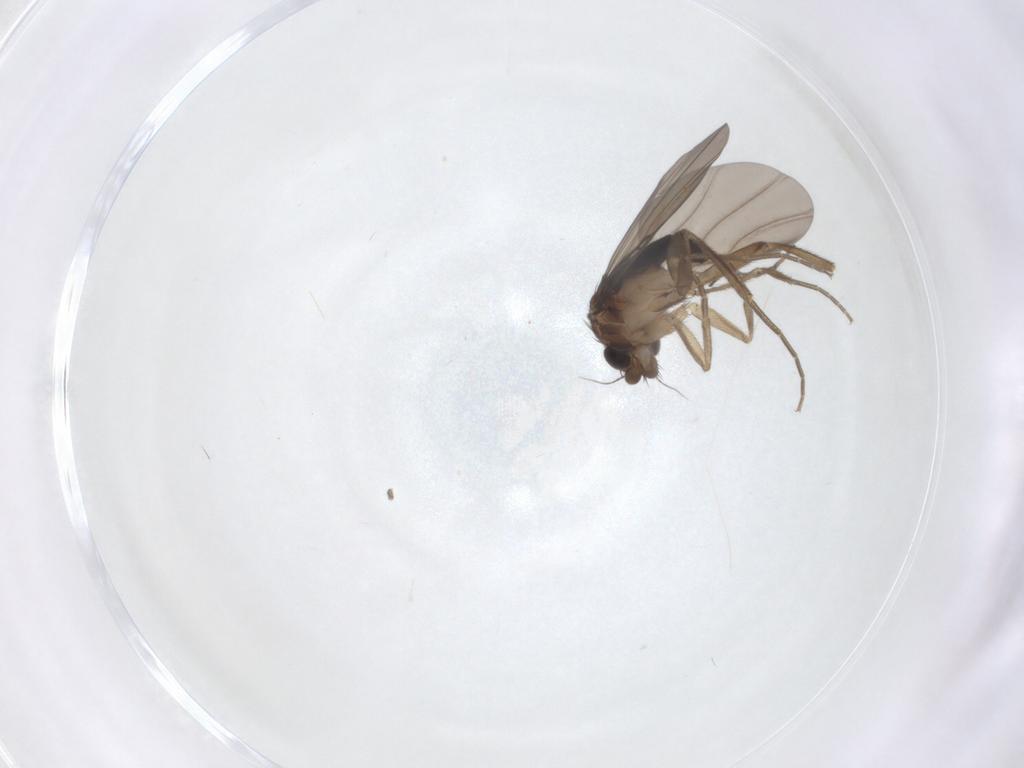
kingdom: Animalia
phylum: Arthropoda
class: Insecta
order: Diptera
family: Chironomidae
